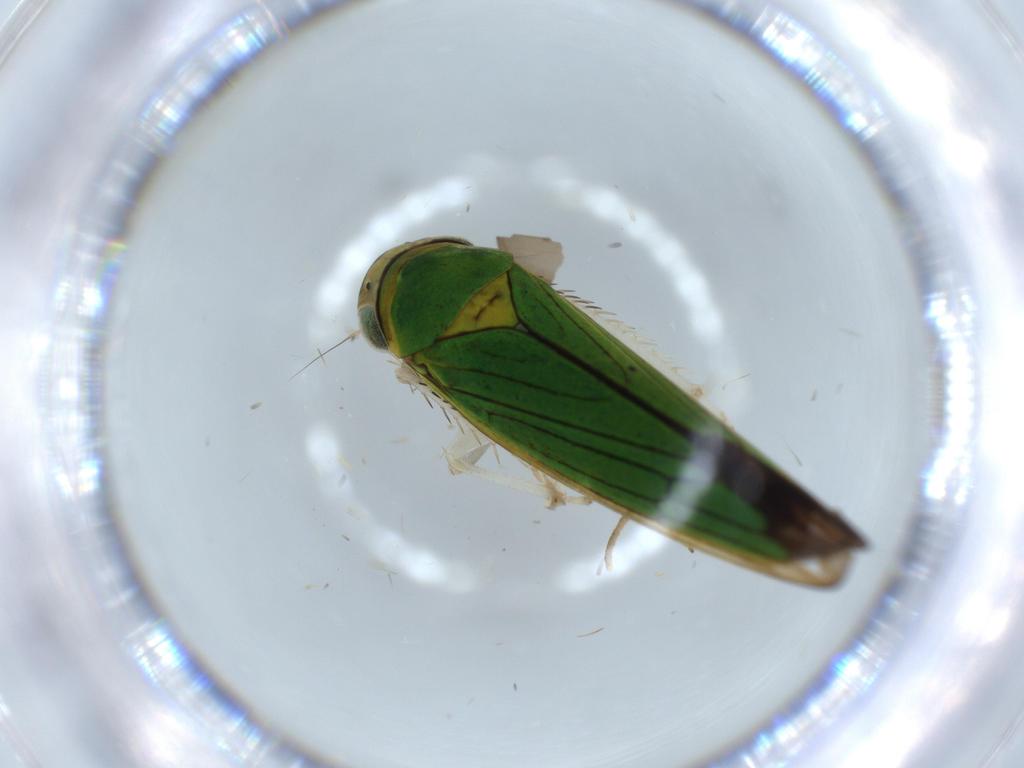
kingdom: Animalia
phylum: Arthropoda
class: Insecta
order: Hemiptera
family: Cicadellidae
